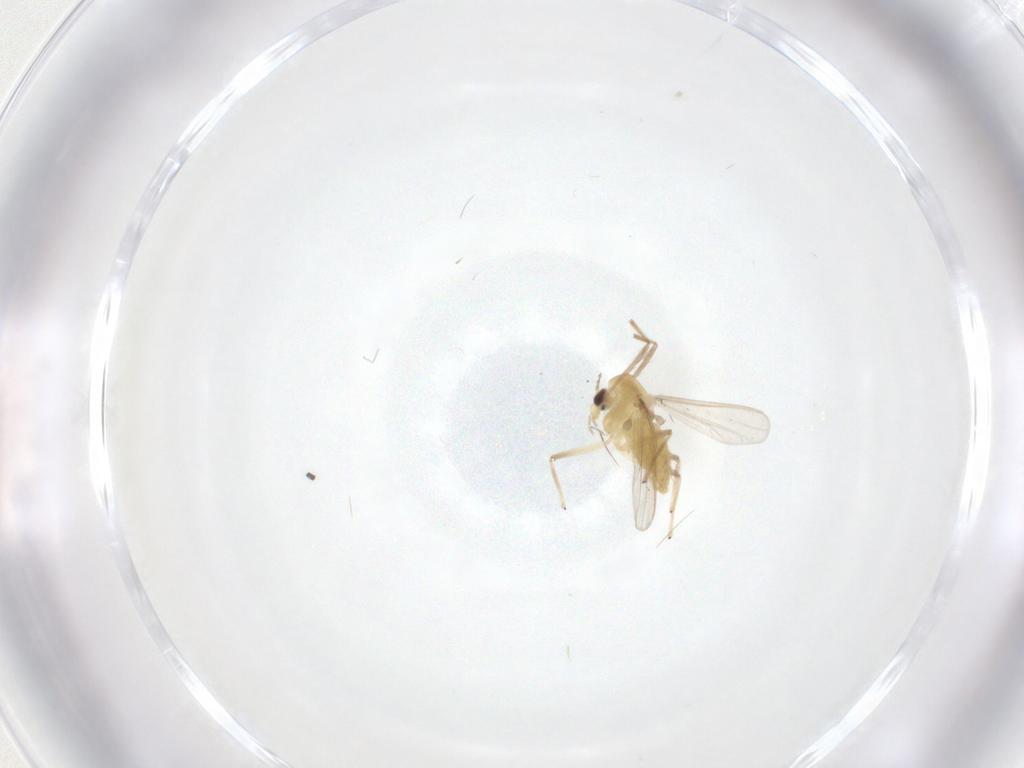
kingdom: Animalia
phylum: Arthropoda
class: Insecta
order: Diptera
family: Chironomidae
